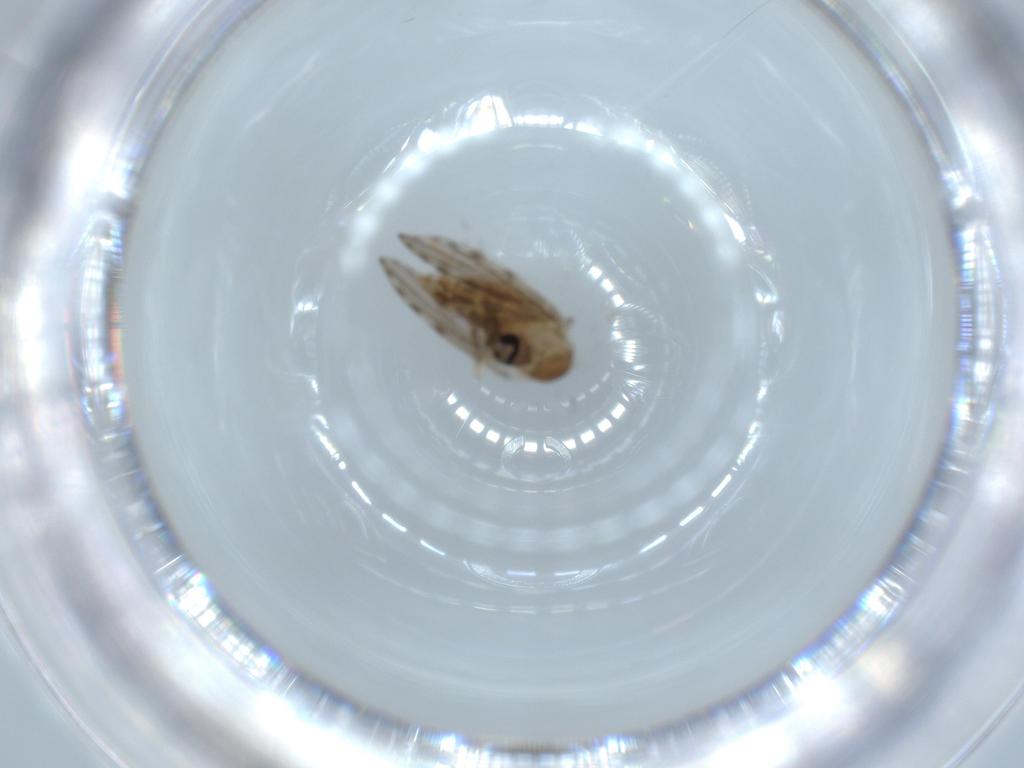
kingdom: Animalia
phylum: Arthropoda
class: Insecta
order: Diptera
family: Psychodidae
